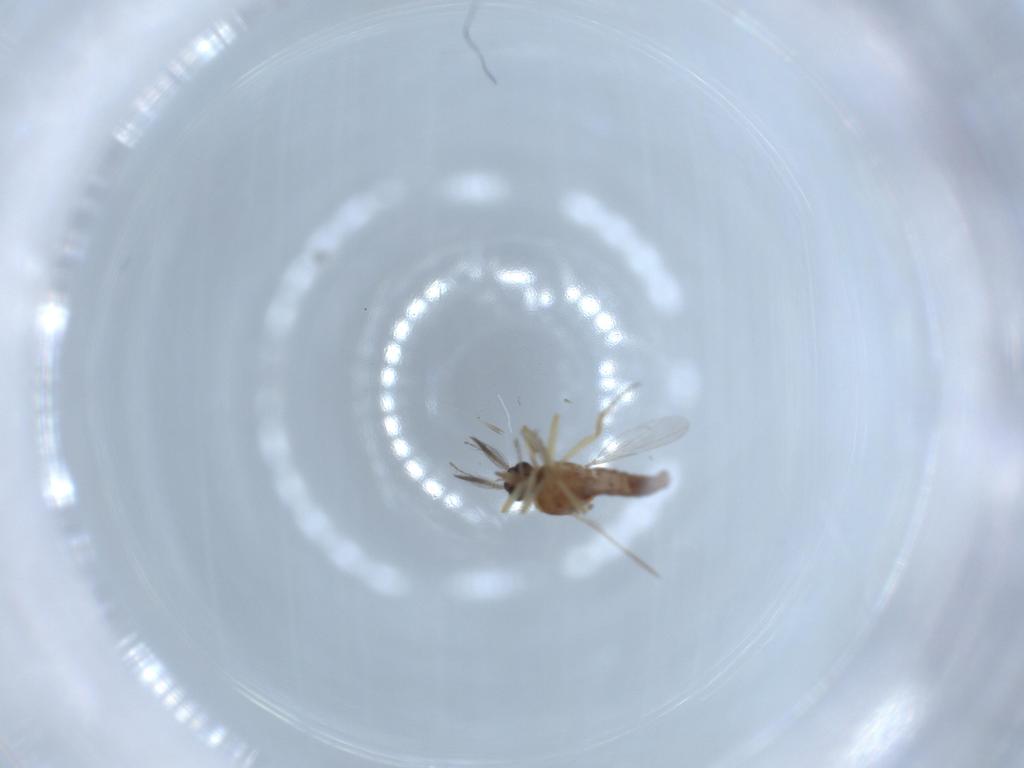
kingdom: Animalia
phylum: Arthropoda
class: Insecta
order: Diptera
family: Ceratopogonidae
